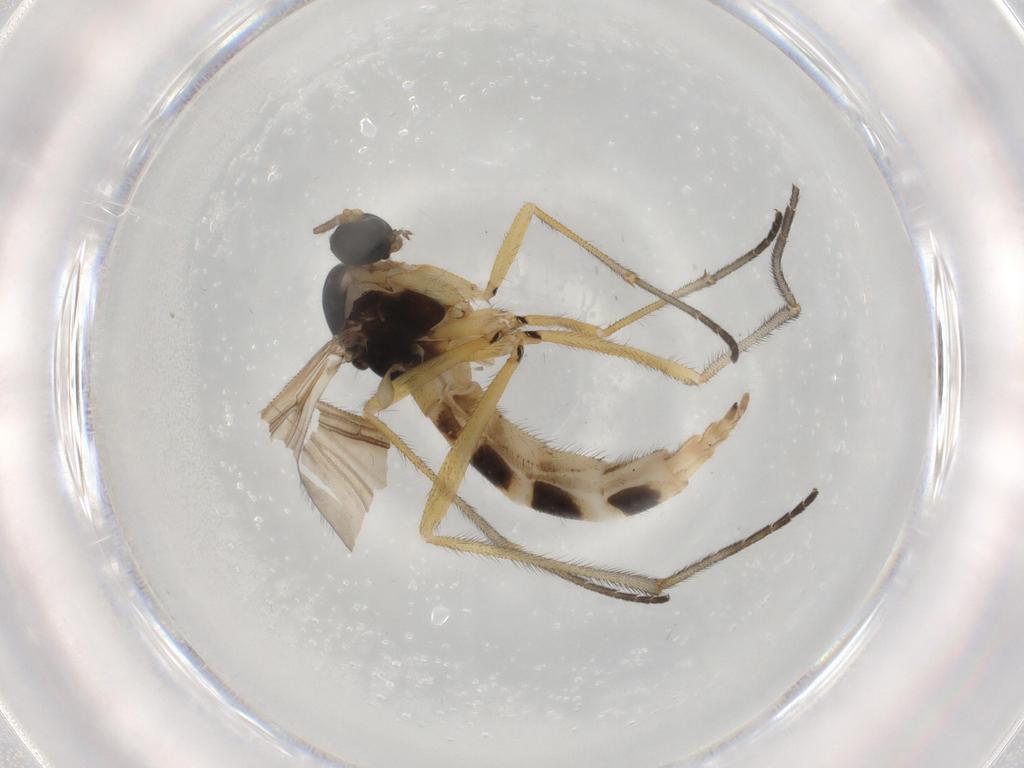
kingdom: Animalia
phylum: Arthropoda
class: Insecta
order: Diptera
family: Sciaridae
